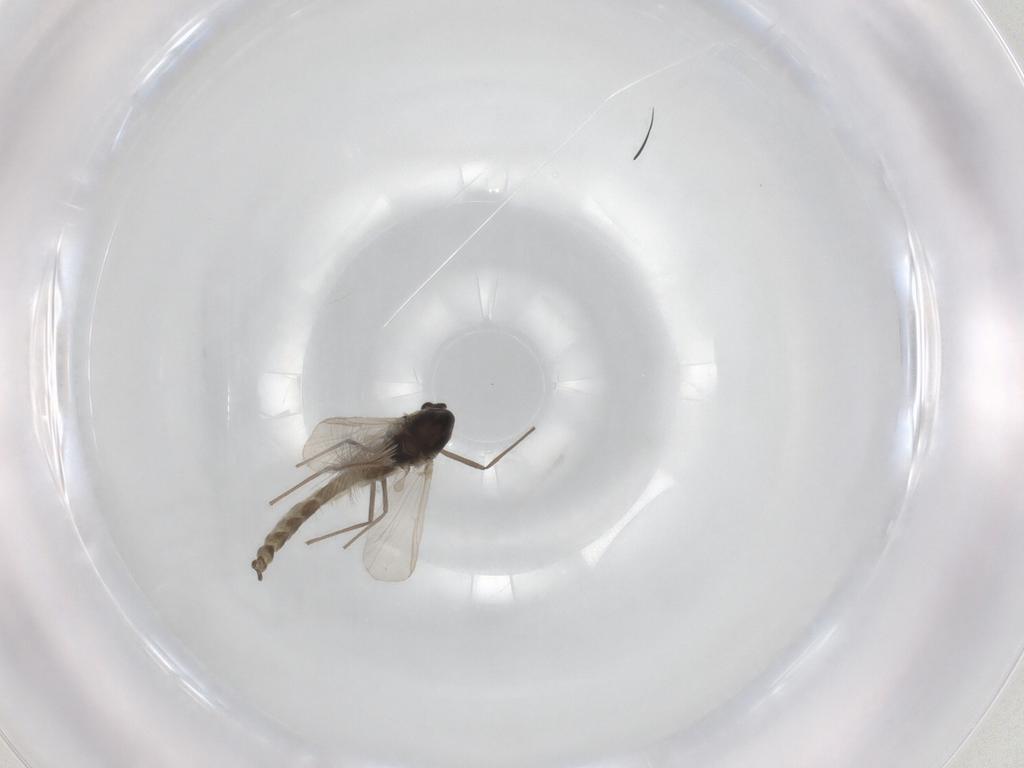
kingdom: Animalia
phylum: Arthropoda
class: Insecta
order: Diptera
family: Chironomidae
